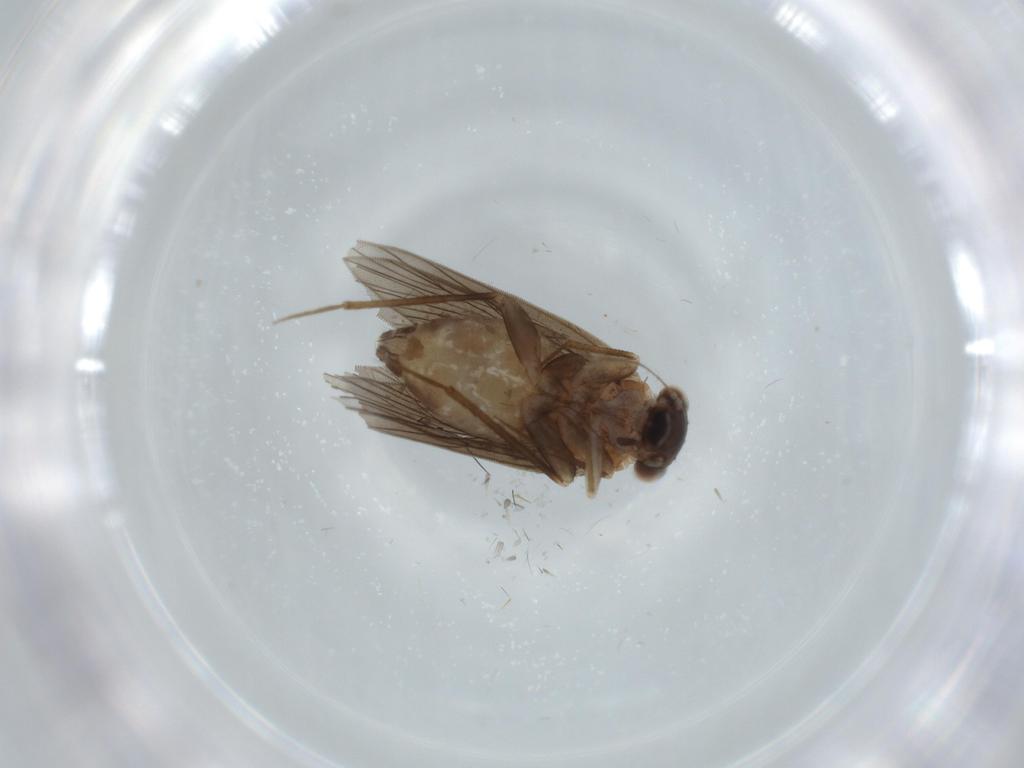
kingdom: Animalia
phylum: Arthropoda
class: Insecta
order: Psocodea
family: Lepidopsocidae
